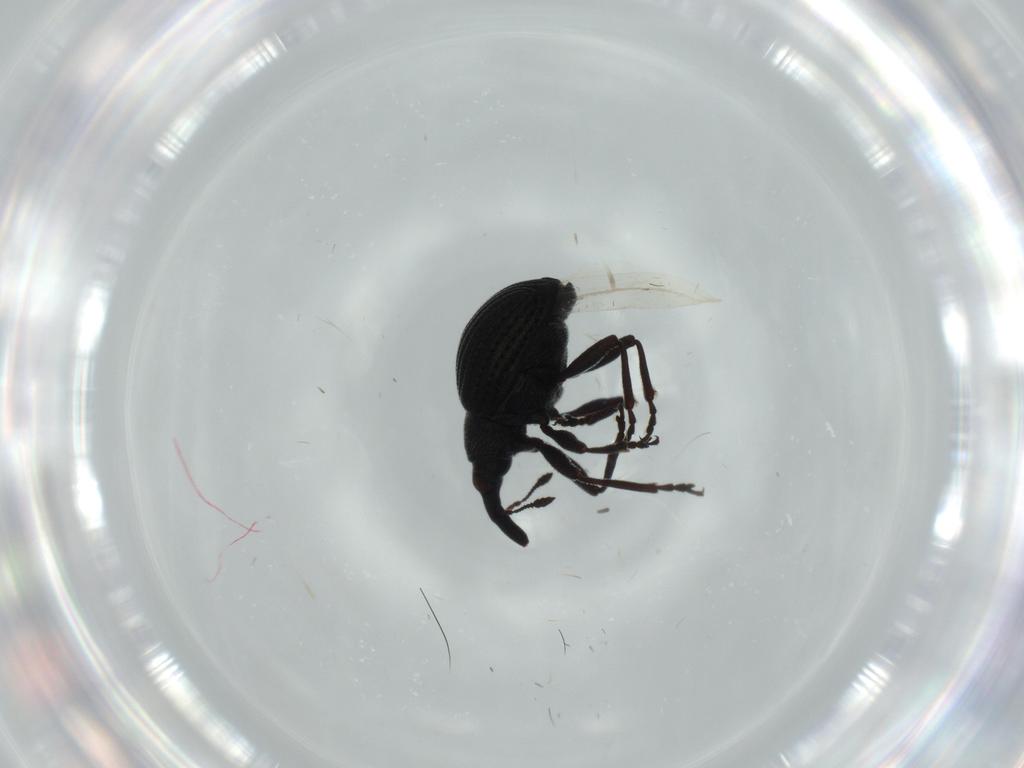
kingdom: Animalia
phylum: Arthropoda
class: Insecta
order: Coleoptera
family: Brentidae
